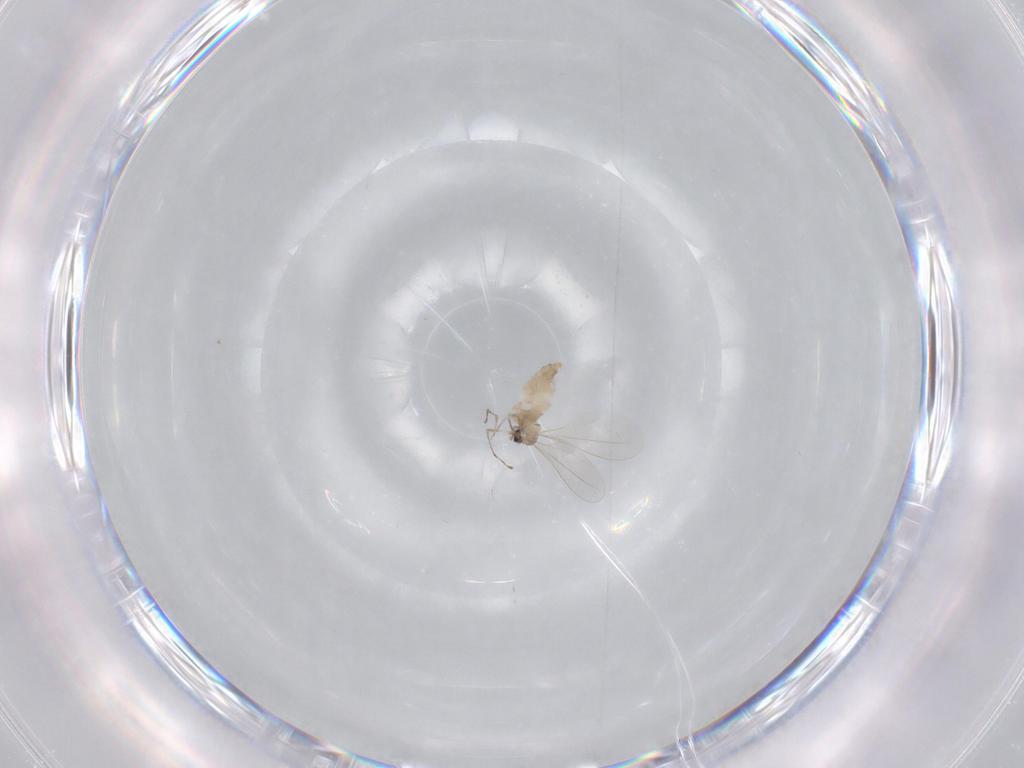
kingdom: Animalia
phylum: Arthropoda
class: Insecta
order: Diptera
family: Cecidomyiidae
